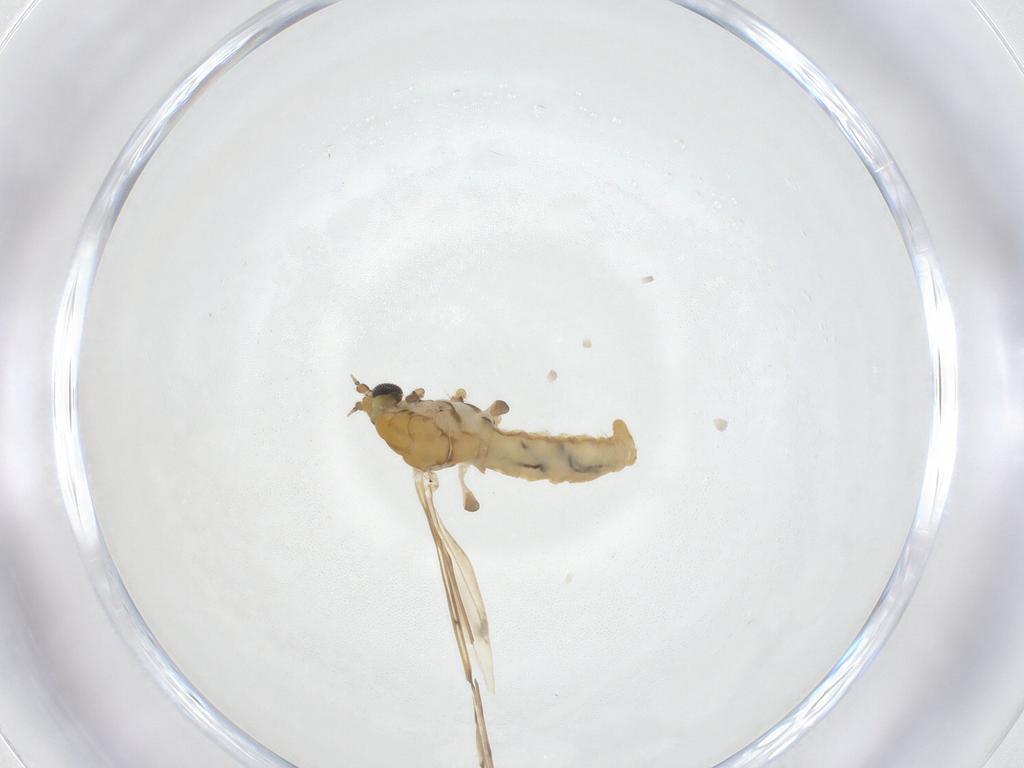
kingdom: Animalia
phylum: Arthropoda
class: Insecta
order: Diptera
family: Limoniidae
